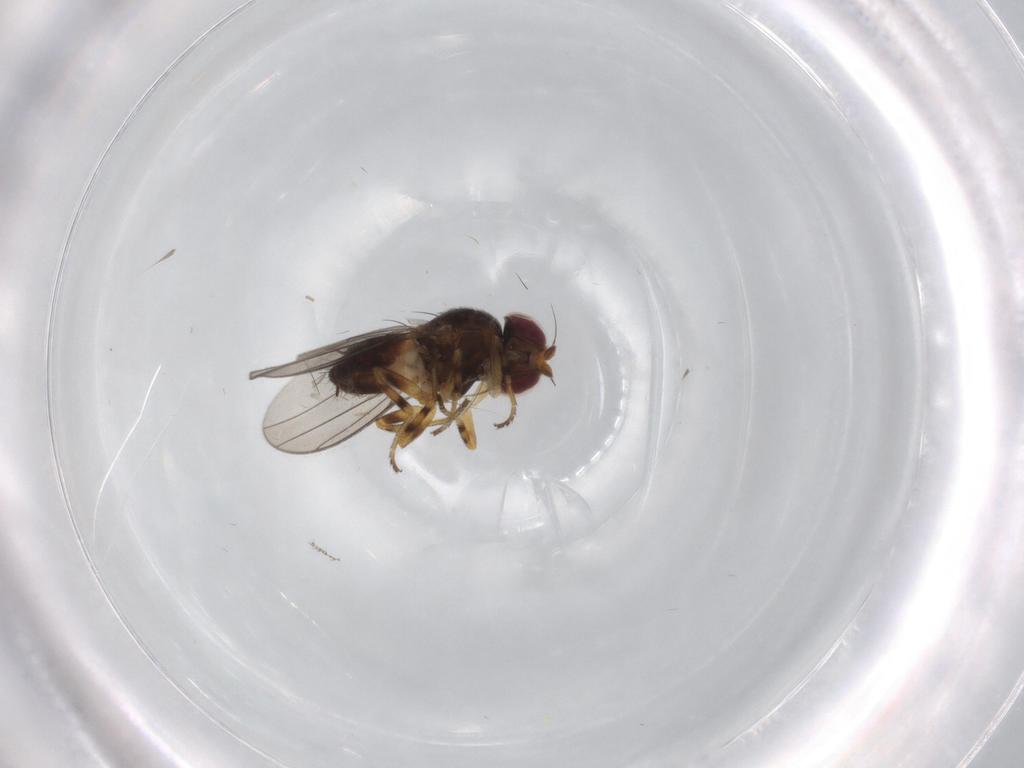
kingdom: Animalia
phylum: Arthropoda
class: Insecta
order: Diptera
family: Chloropidae
